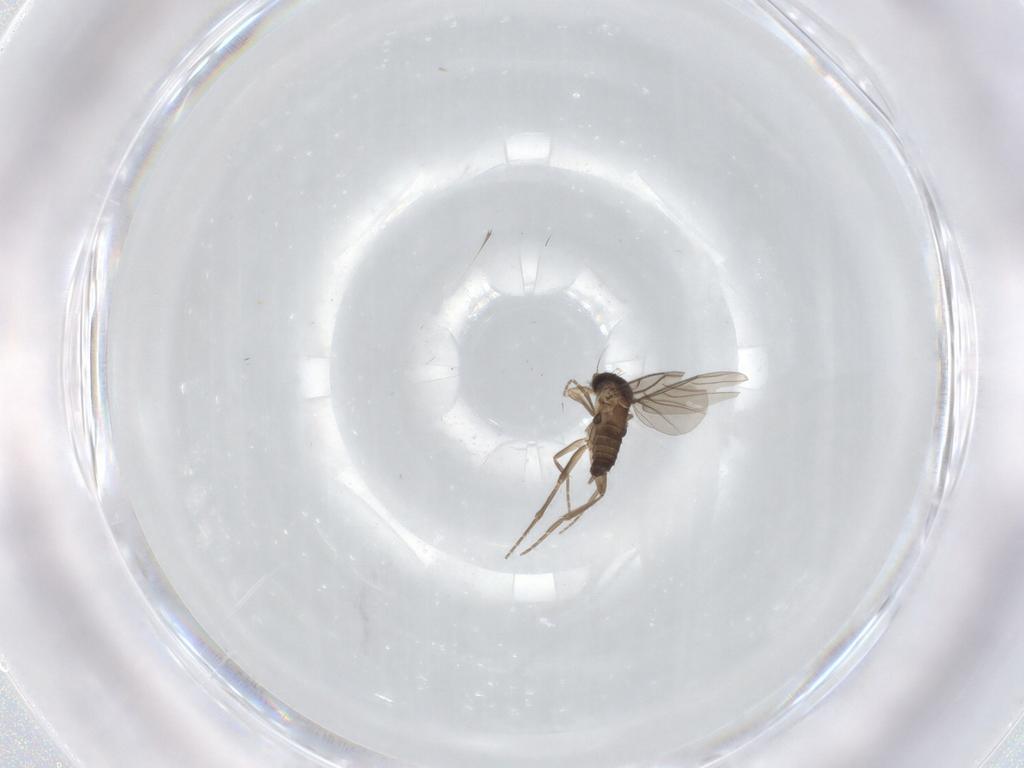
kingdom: Animalia
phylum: Arthropoda
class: Insecta
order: Diptera
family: Phoridae
